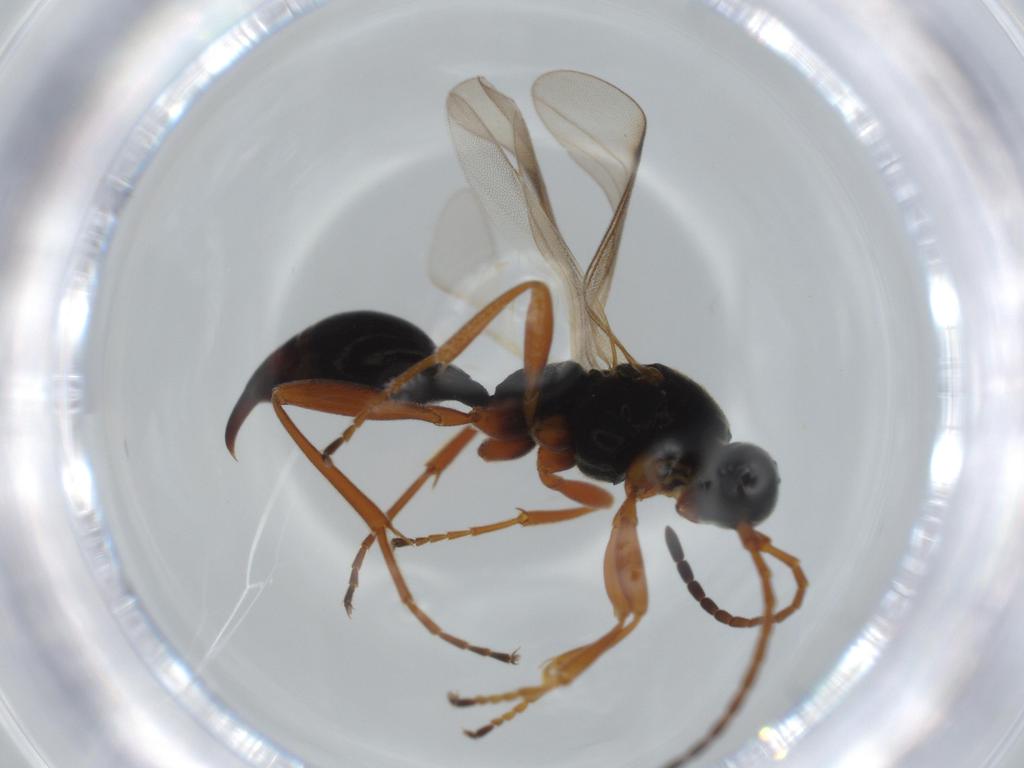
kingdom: Animalia
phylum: Arthropoda
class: Insecta
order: Hymenoptera
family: Proctotrupidae
